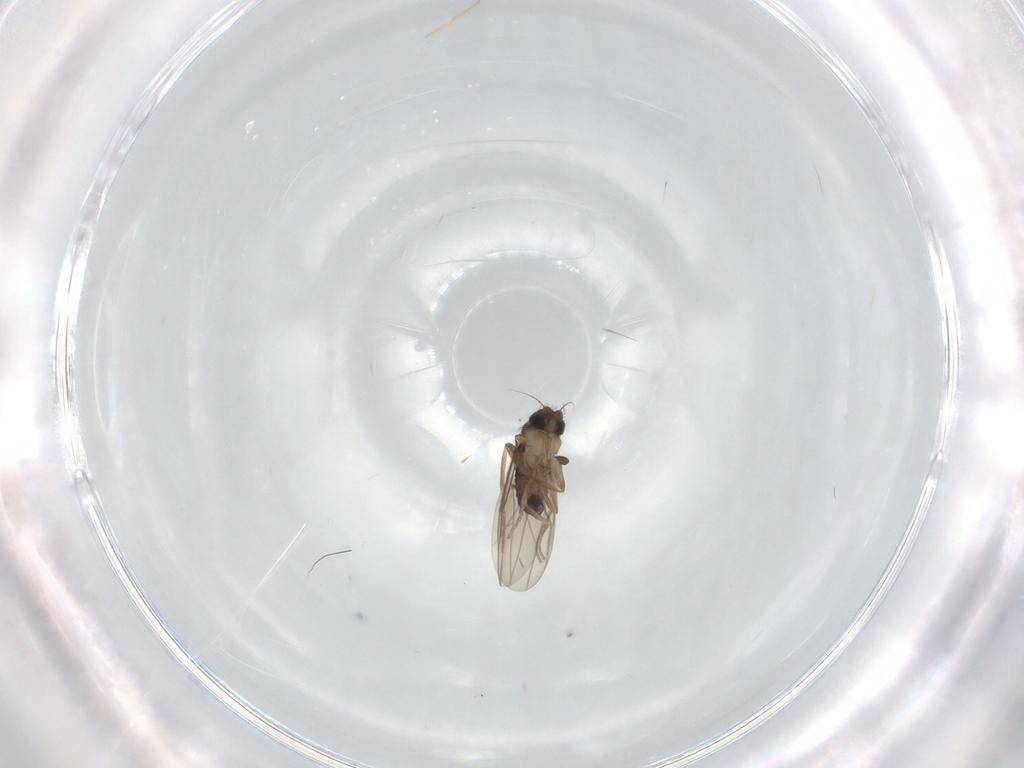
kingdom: Animalia
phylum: Arthropoda
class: Insecta
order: Diptera
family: Phoridae
